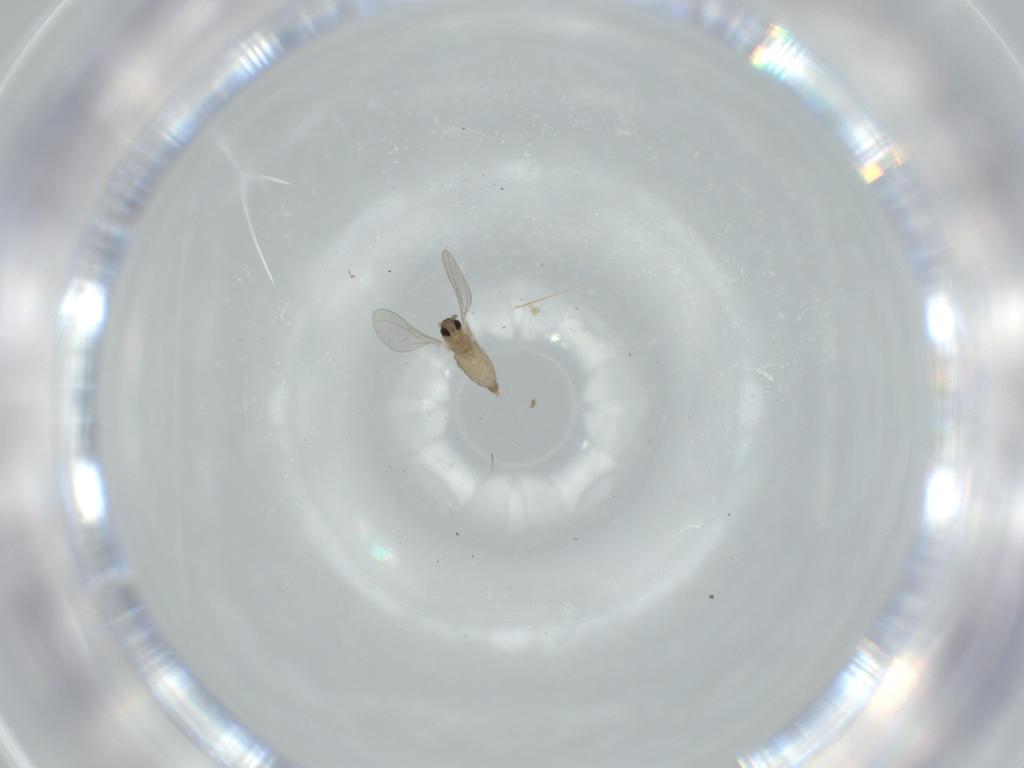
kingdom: Animalia
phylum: Arthropoda
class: Insecta
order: Diptera
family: Cecidomyiidae
